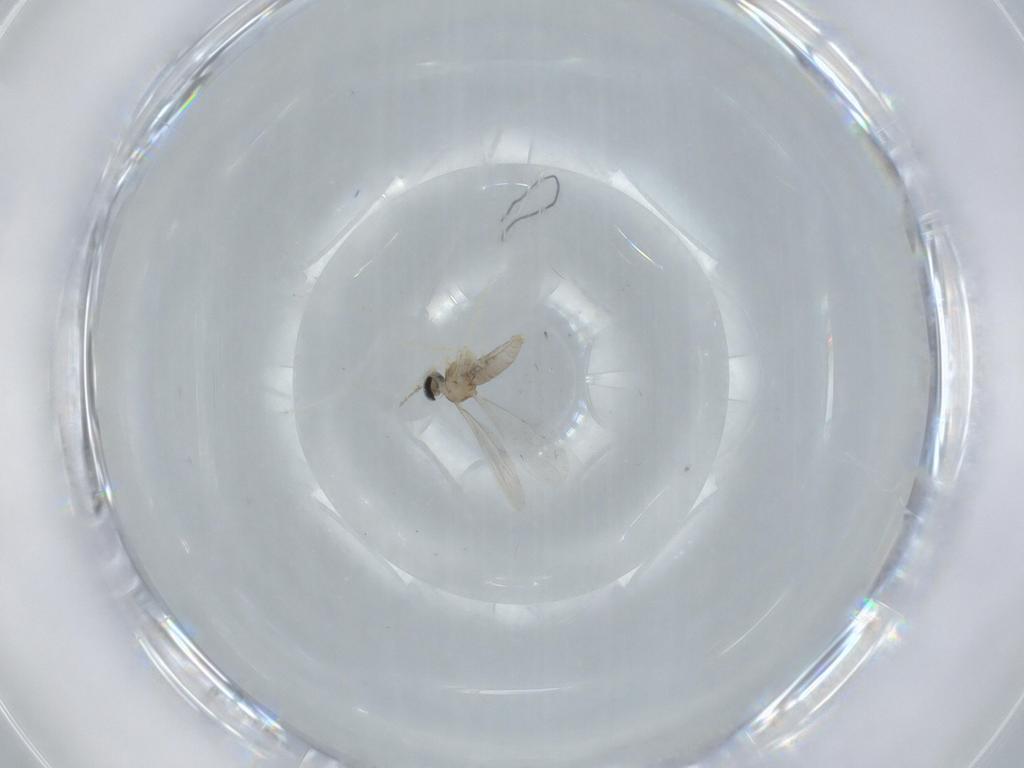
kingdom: Animalia
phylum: Arthropoda
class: Insecta
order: Diptera
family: Cecidomyiidae
